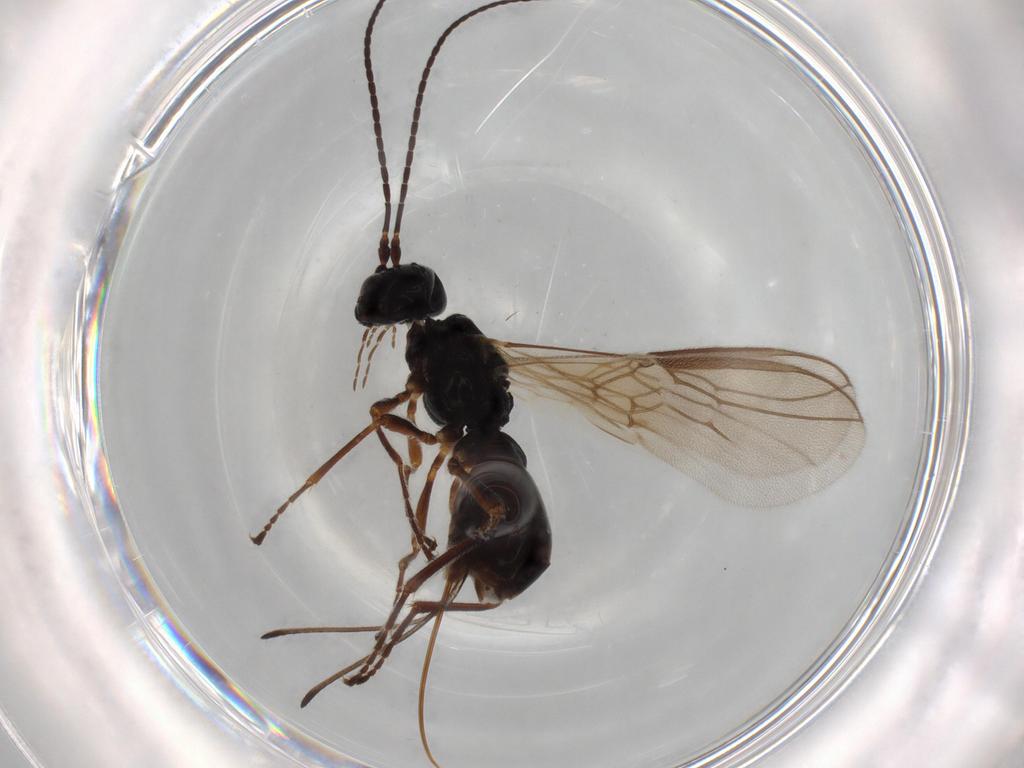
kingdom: Animalia
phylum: Arthropoda
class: Insecta
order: Hymenoptera
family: Braconidae
